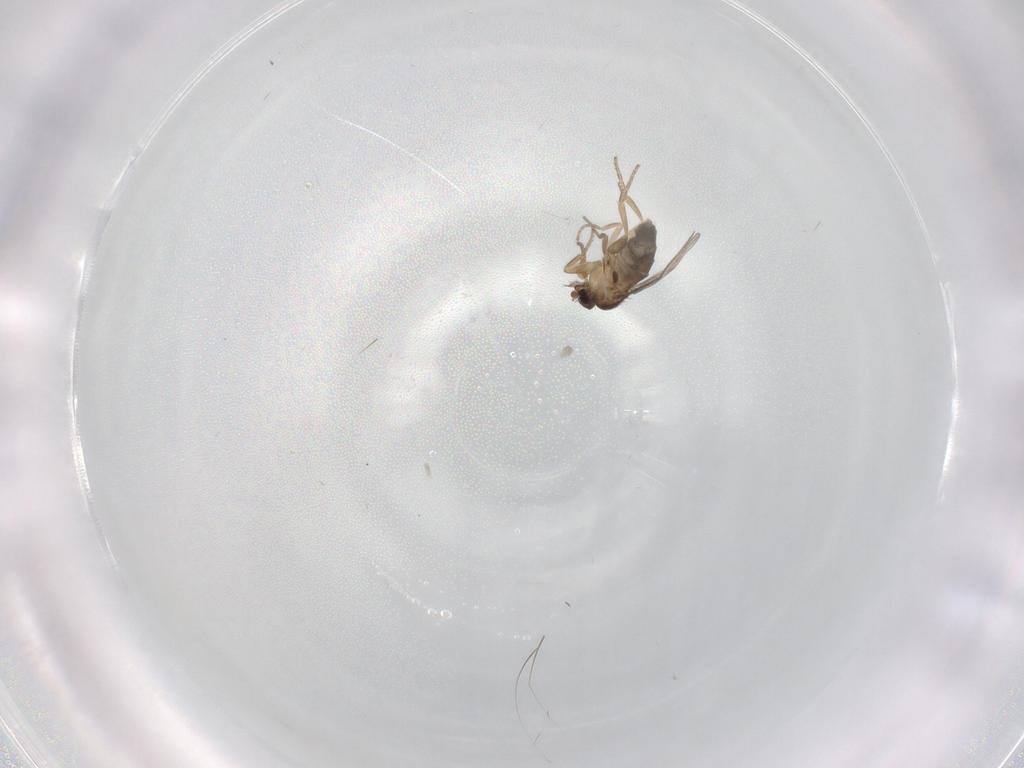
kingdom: Animalia
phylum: Arthropoda
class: Insecta
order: Diptera
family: Phoridae
